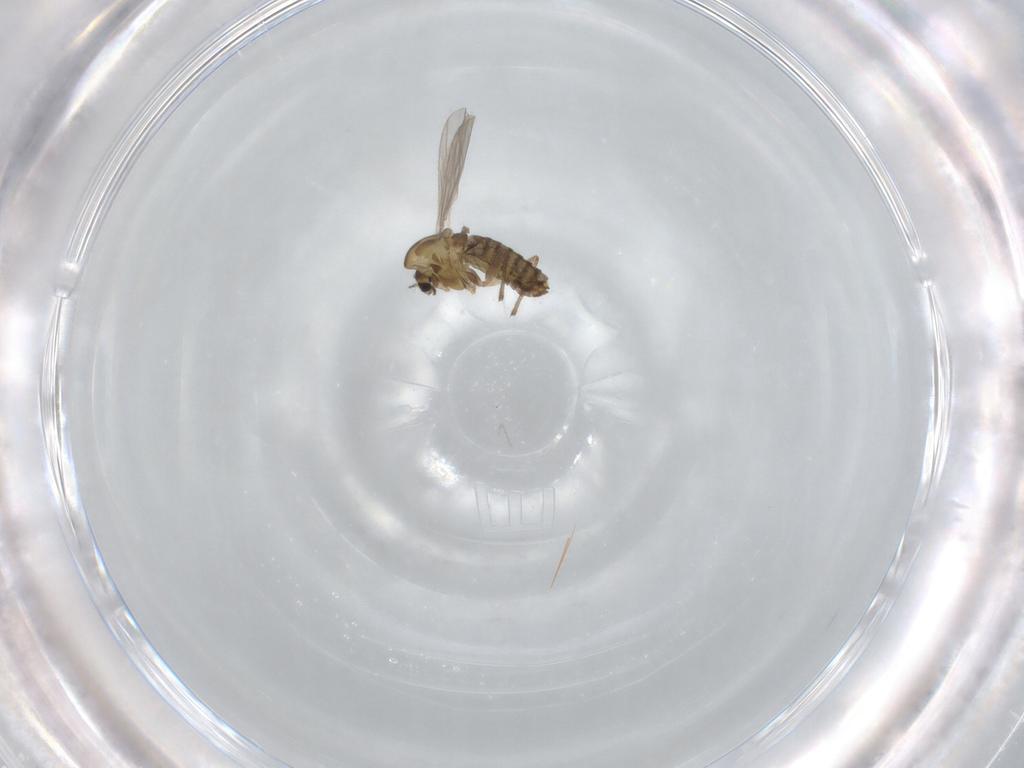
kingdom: Animalia
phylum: Arthropoda
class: Insecta
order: Diptera
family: Chironomidae
